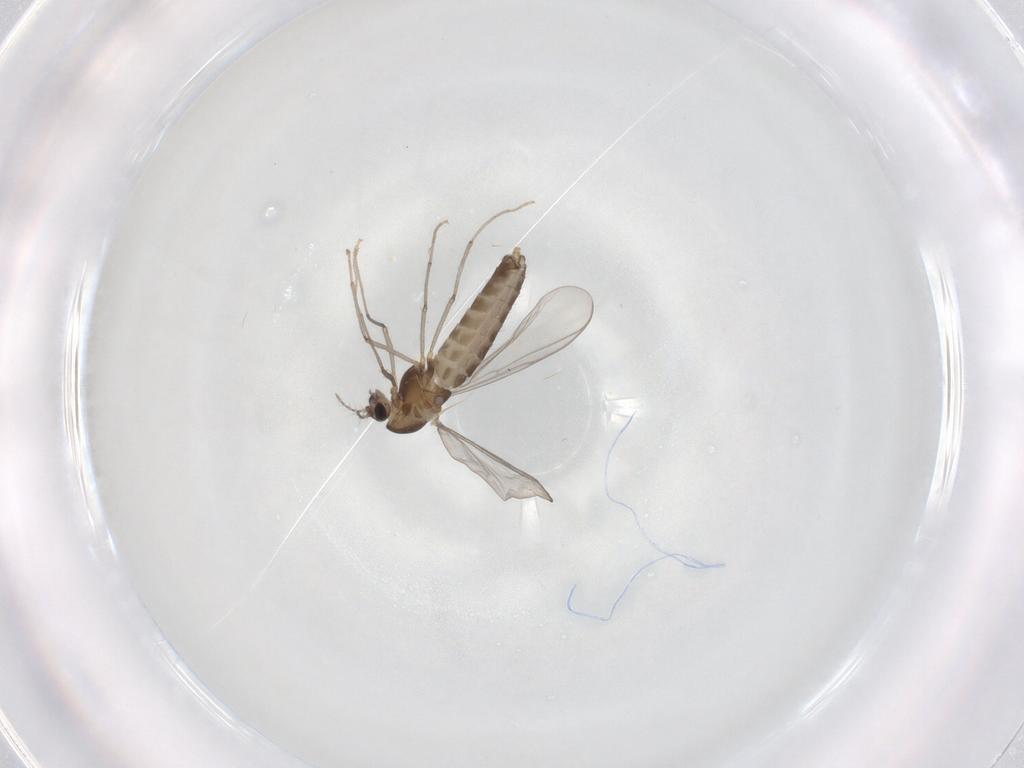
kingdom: Animalia
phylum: Arthropoda
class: Insecta
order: Diptera
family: Chironomidae
